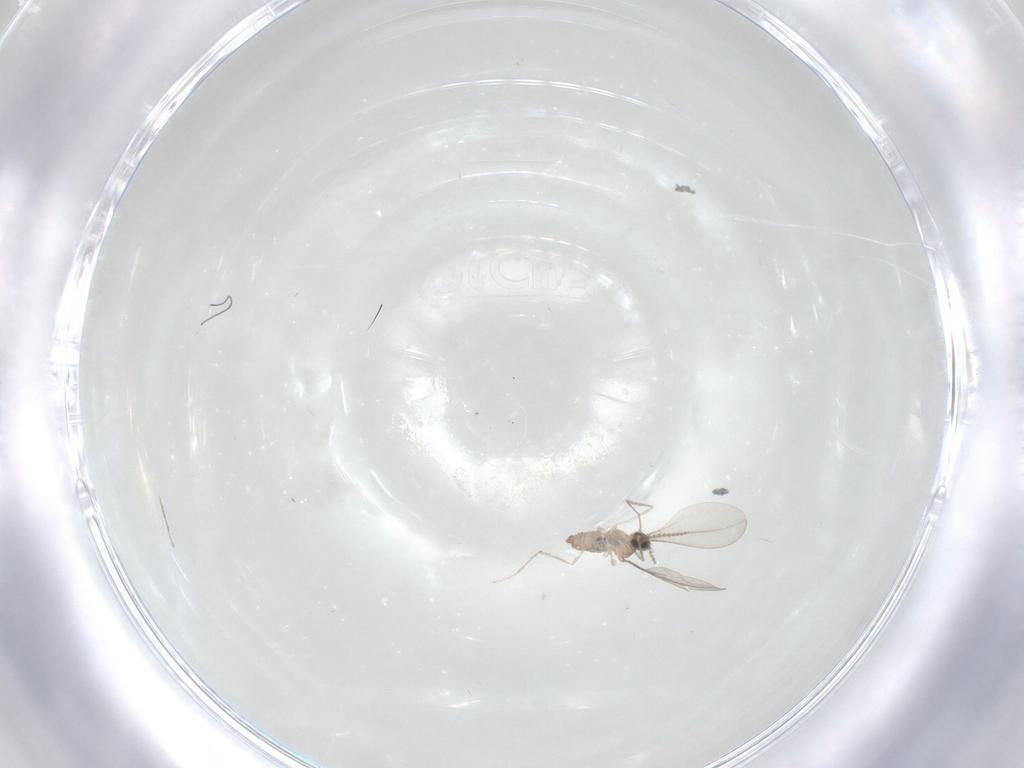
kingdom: Animalia
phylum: Arthropoda
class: Insecta
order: Diptera
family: Cecidomyiidae
